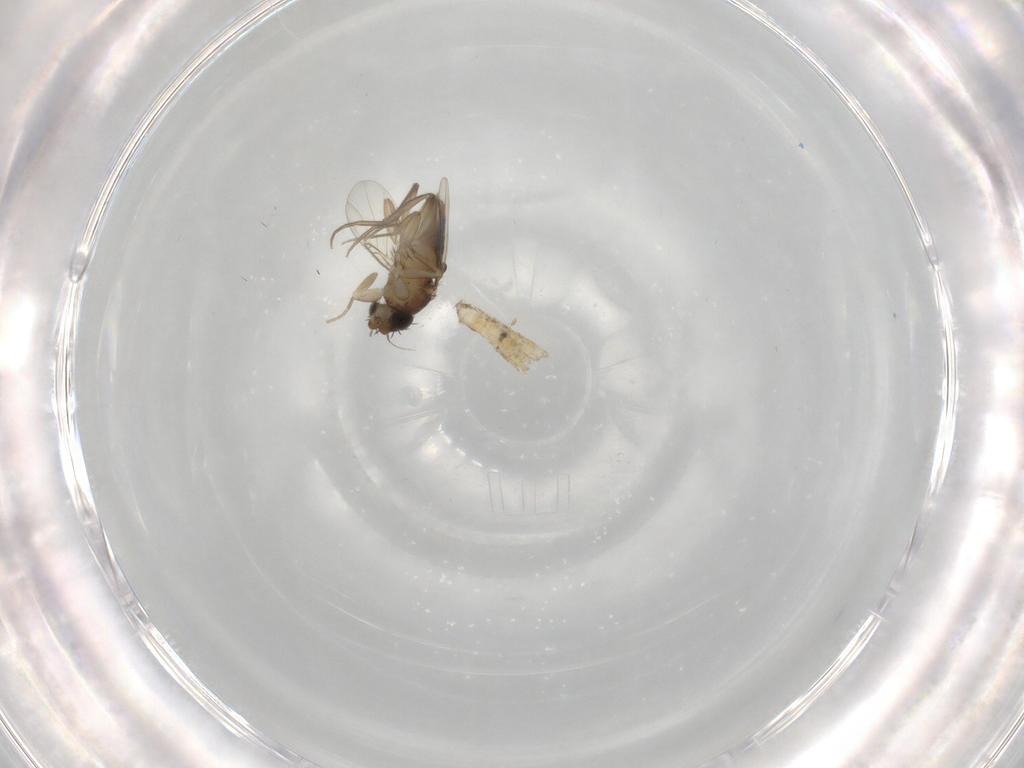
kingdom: Animalia
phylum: Arthropoda
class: Insecta
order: Diptera
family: Phoridae
